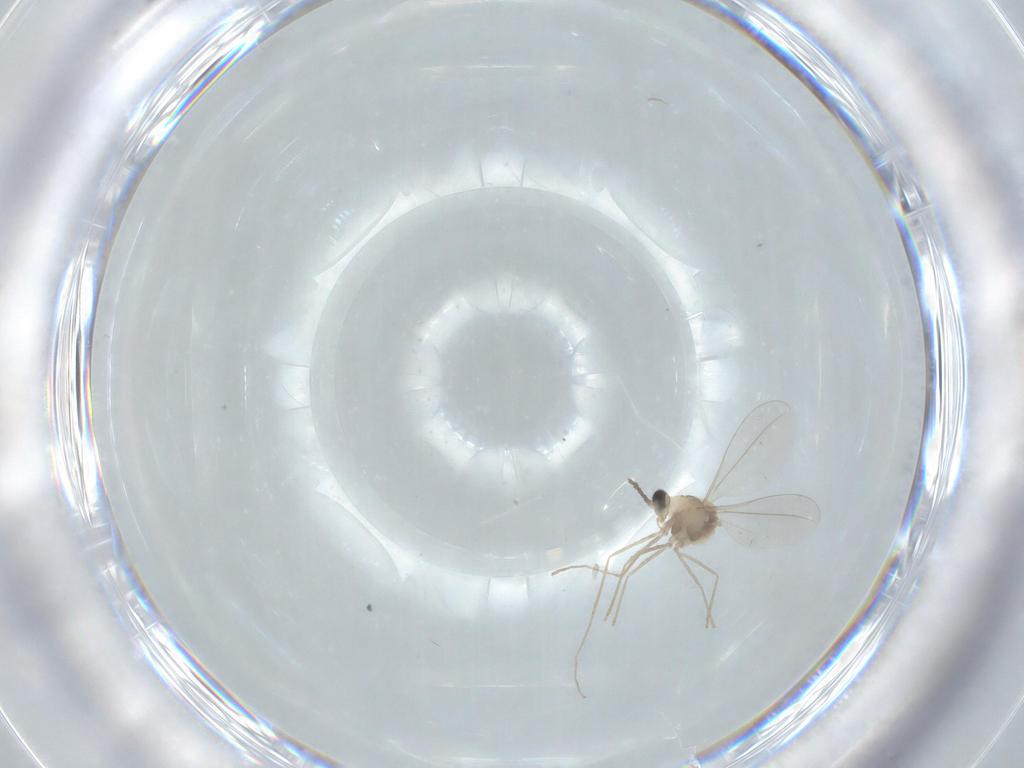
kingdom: Animalia
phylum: Arthropoda
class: Insecta
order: Diptera
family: Cecidomyiidae
